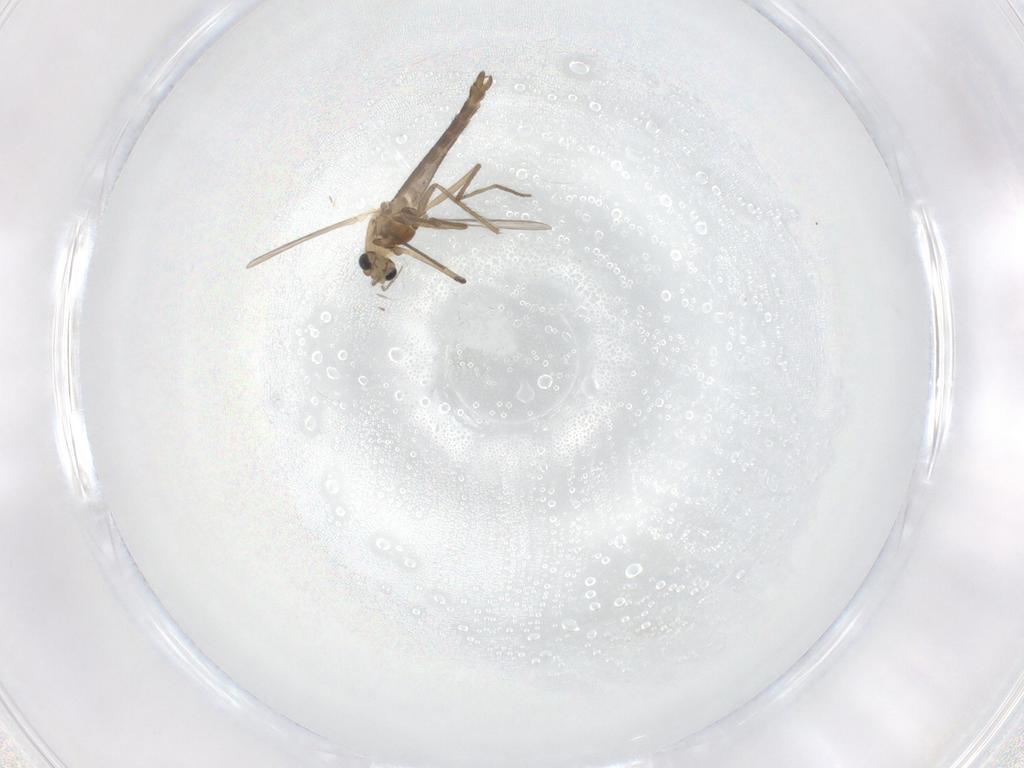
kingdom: Animalia
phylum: Arthropoda
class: Insecta
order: Diptera
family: Chironomidae
